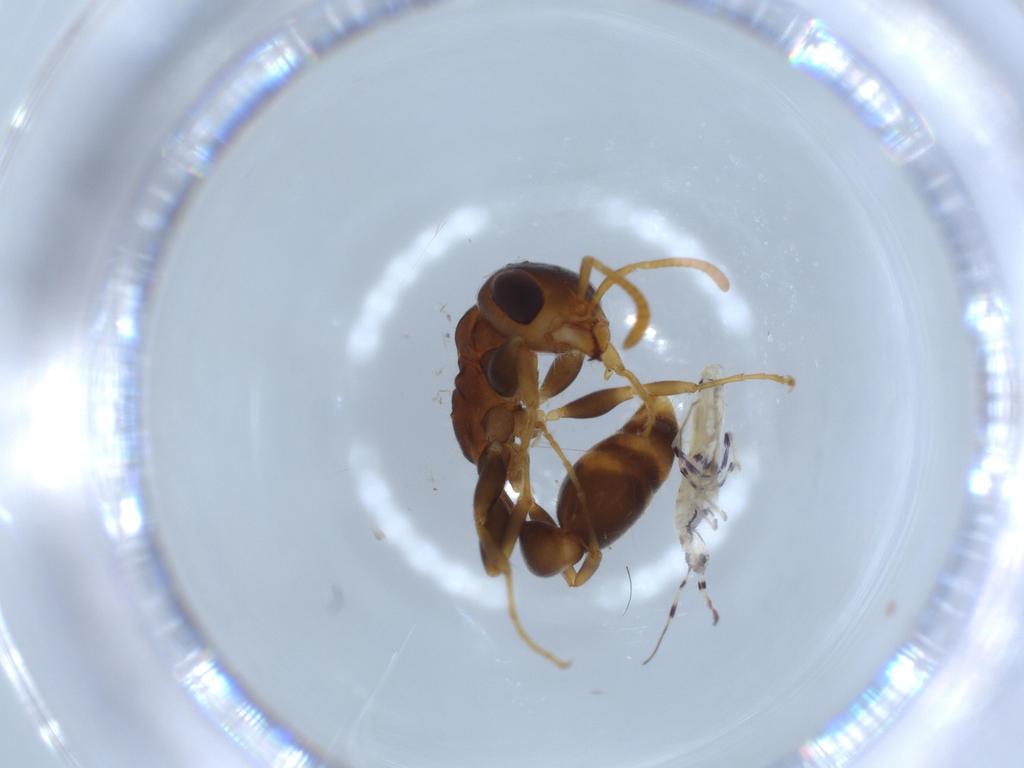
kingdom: Animalia
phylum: Arthropoda
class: Collembola
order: Entomobryomorpha
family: Entomobryidae
